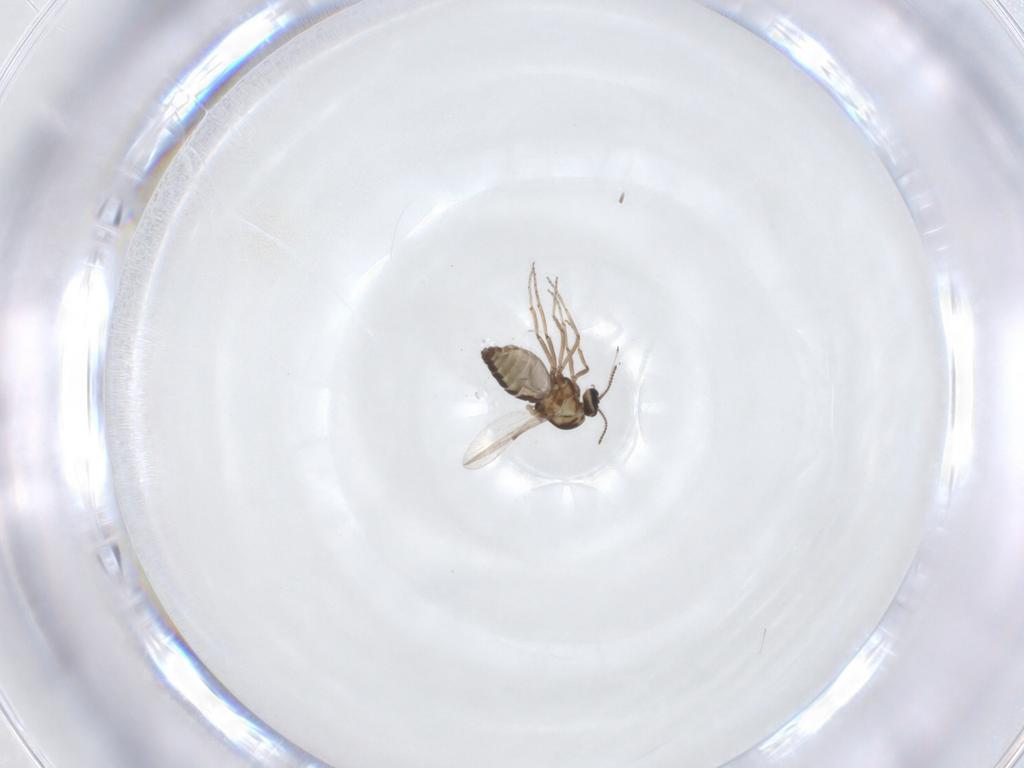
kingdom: Animalia
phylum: Arthropoda
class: Insecta
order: Diptera
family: Ceratopogonidae
